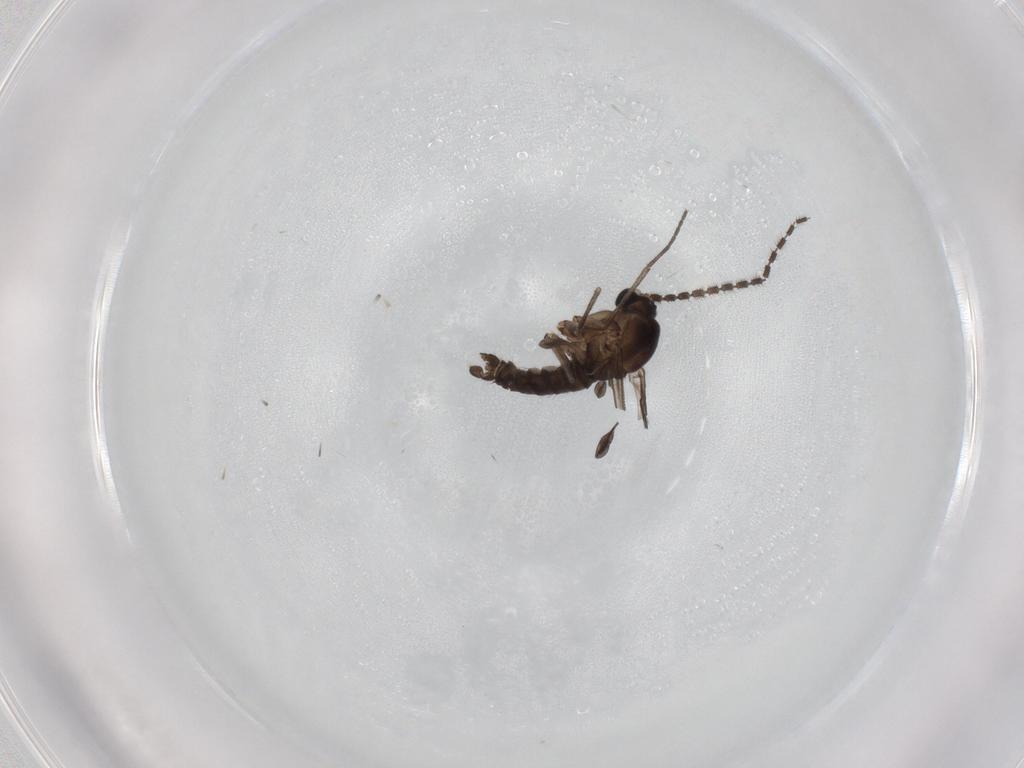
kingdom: Animalia
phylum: Arthropoda
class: Insecta
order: Diptera
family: Sciaridae
